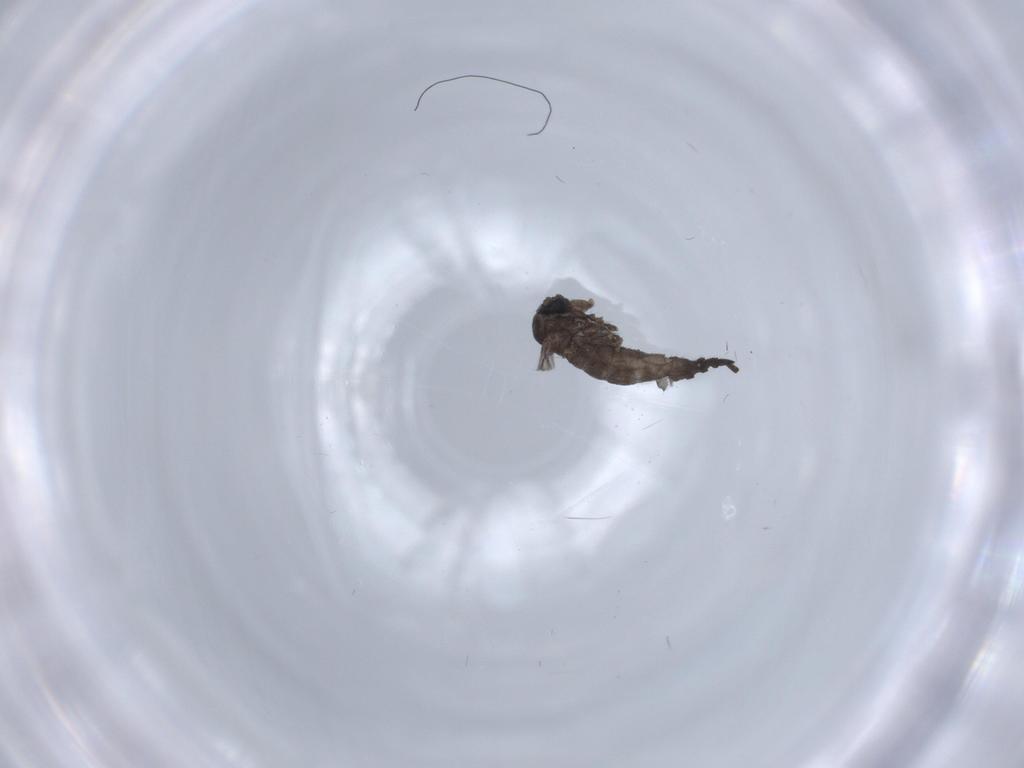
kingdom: Animalia
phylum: Arthropoda
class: Insecta
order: Diptera
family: Sciaridae
